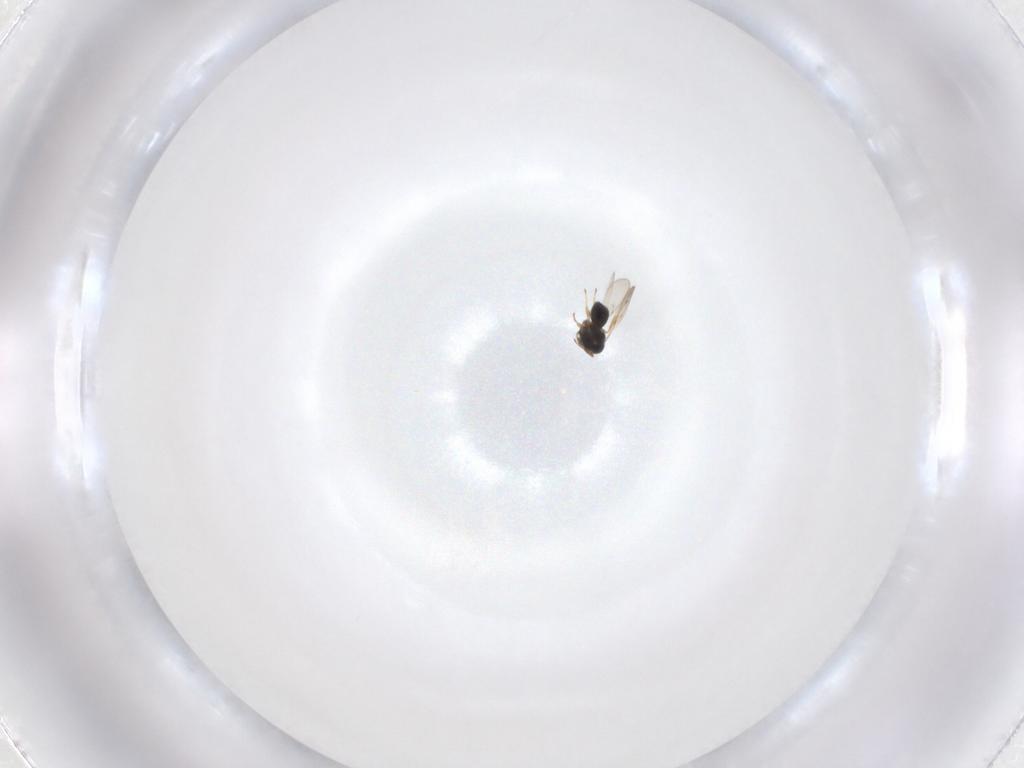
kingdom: Animalia
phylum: Arthropoda
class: Insecta
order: Hymenoptera
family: Scelionidae
